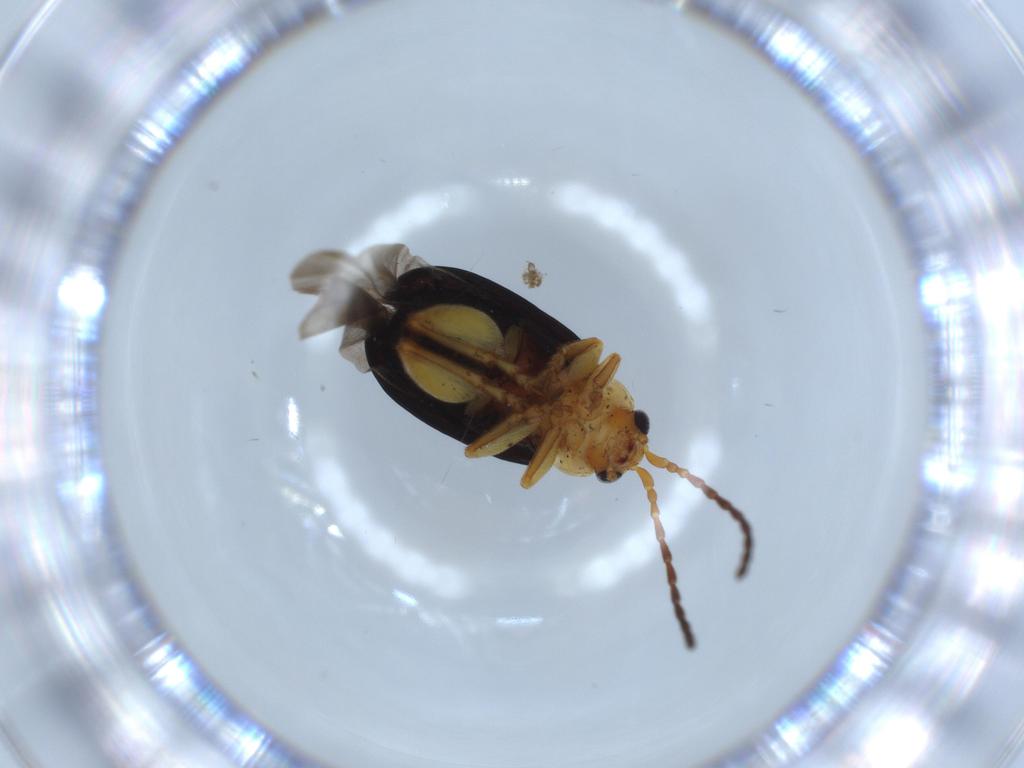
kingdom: Animalia
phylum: Arthropoda
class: Insecta
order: Coleoptera
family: Chrysomelidae
